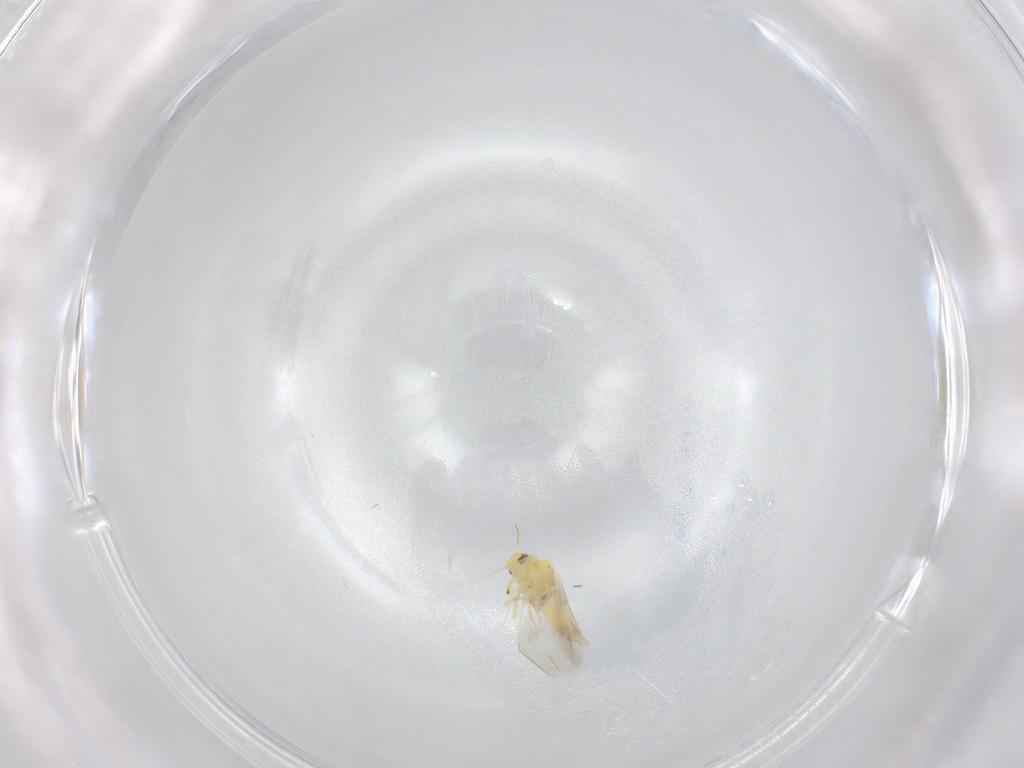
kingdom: Animalia
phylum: Arthropoda
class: Insecta
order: Hemiptera
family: Aleyrodidae
